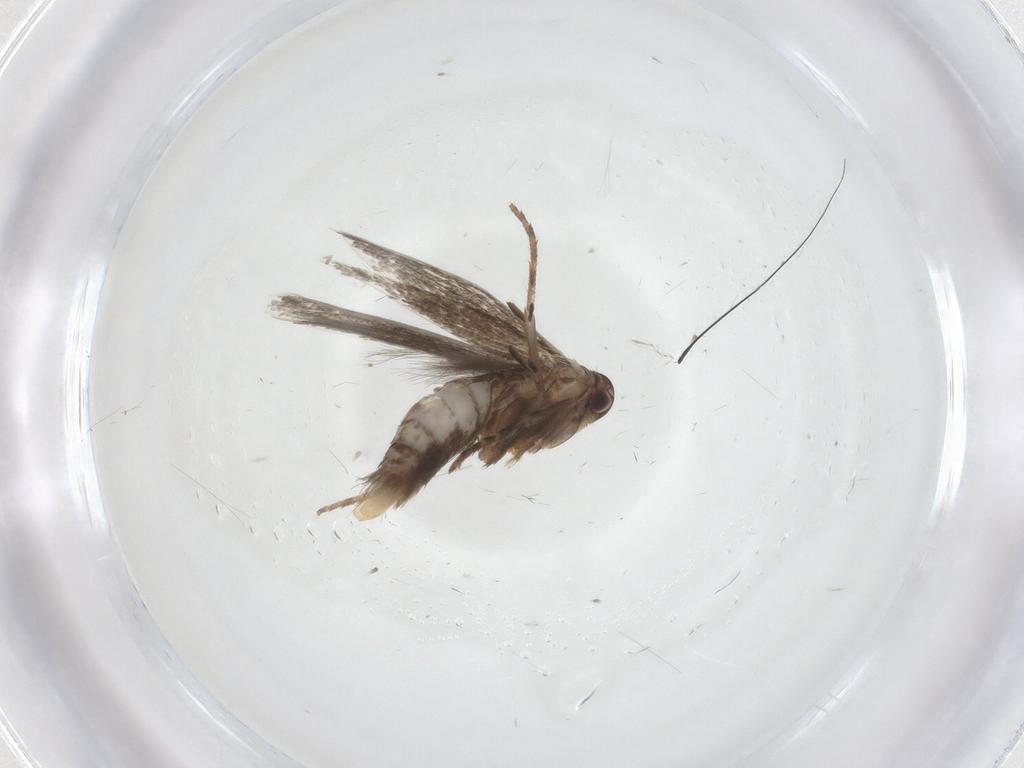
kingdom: Animalia
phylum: Arthropoda
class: Insecta
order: Lepidoptera
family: Elachistidae
